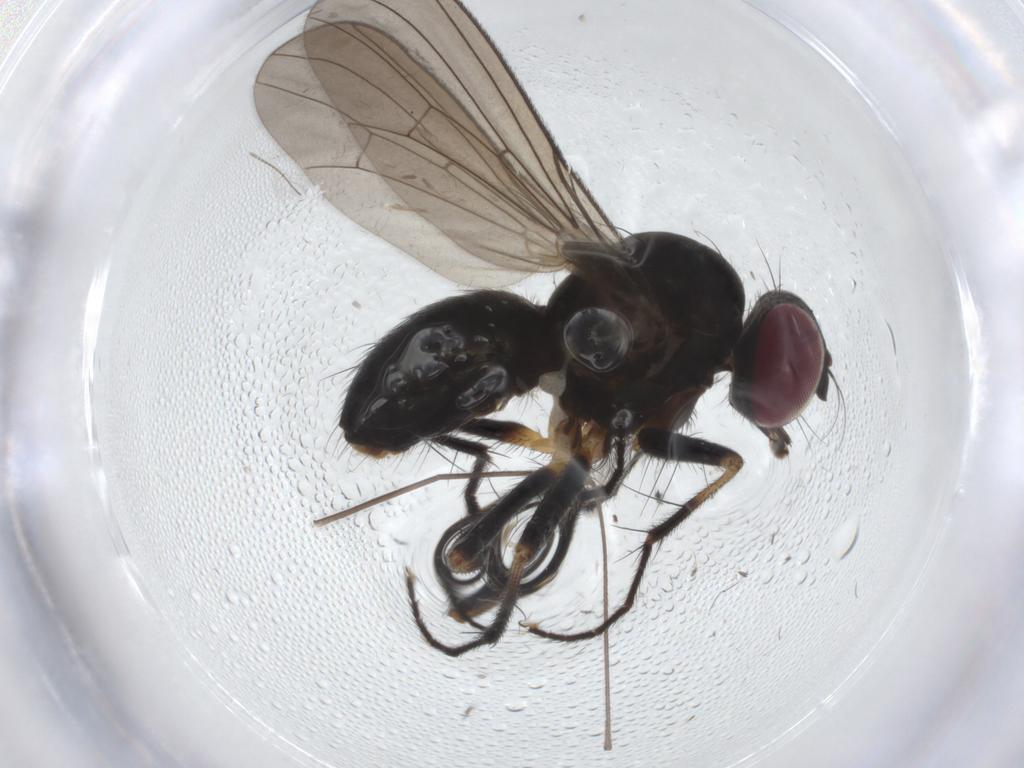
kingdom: Animalia
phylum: Arthropoda
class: Insecta
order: Diptera
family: Anthomyiidae
